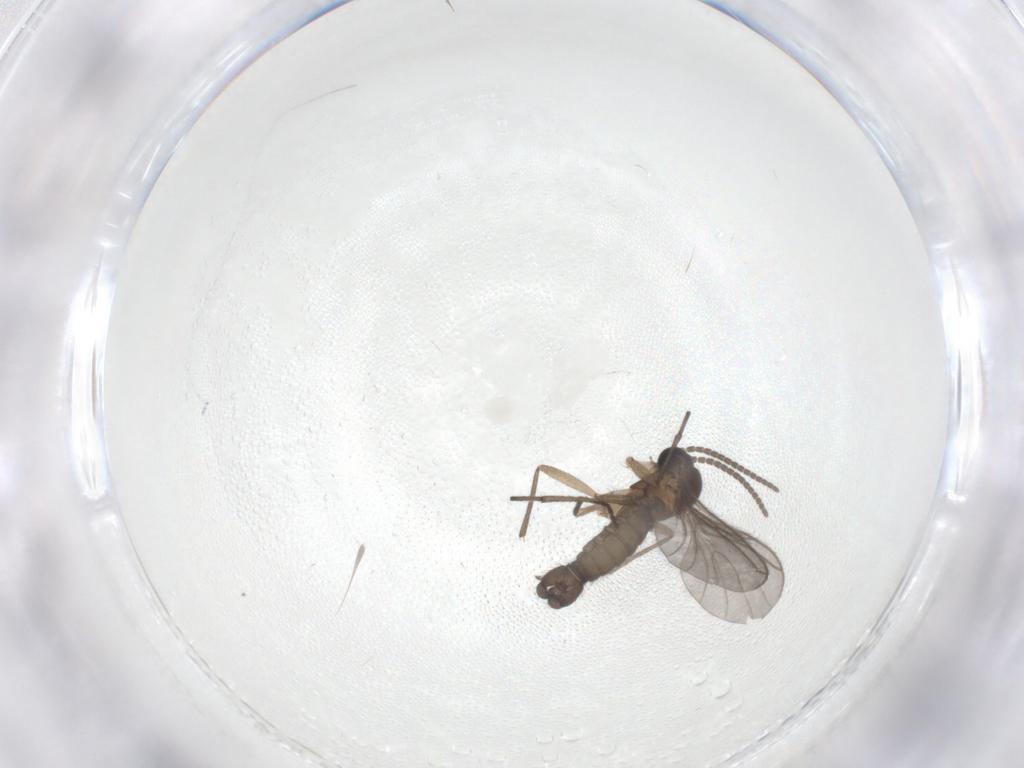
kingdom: Animalia
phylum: Arthropoda
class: Insecta
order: Diptera
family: Sciaridae
